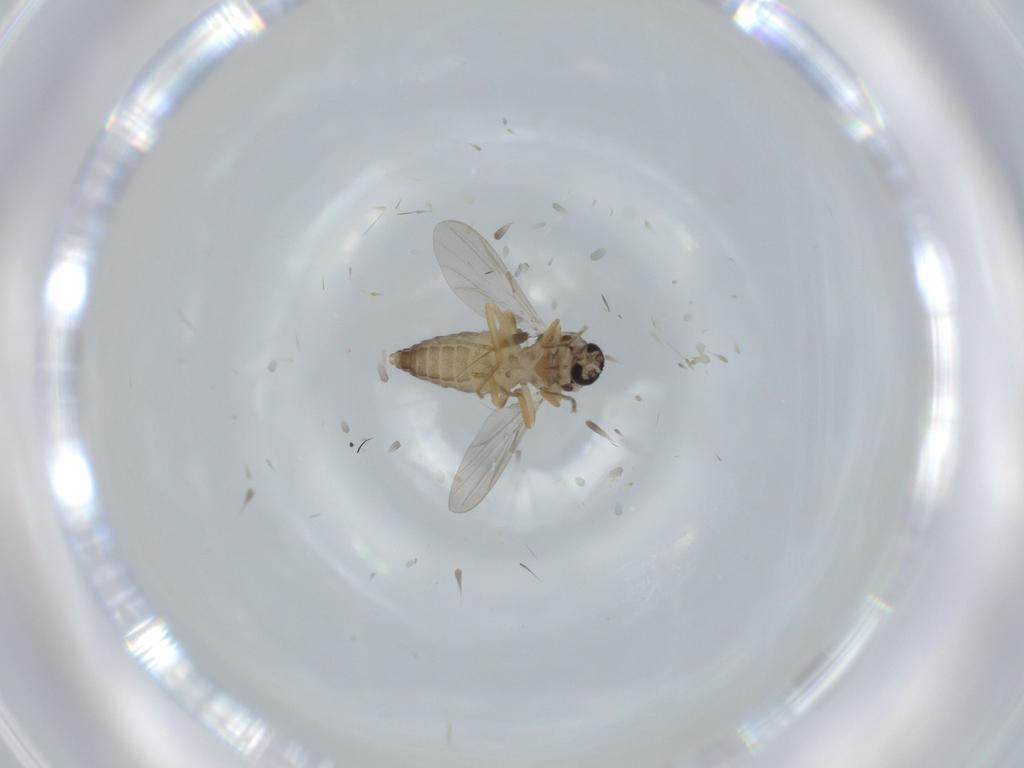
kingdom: Animalia
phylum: Arthropoda
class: Insecta
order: Diptera
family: Ceratopogonidae
